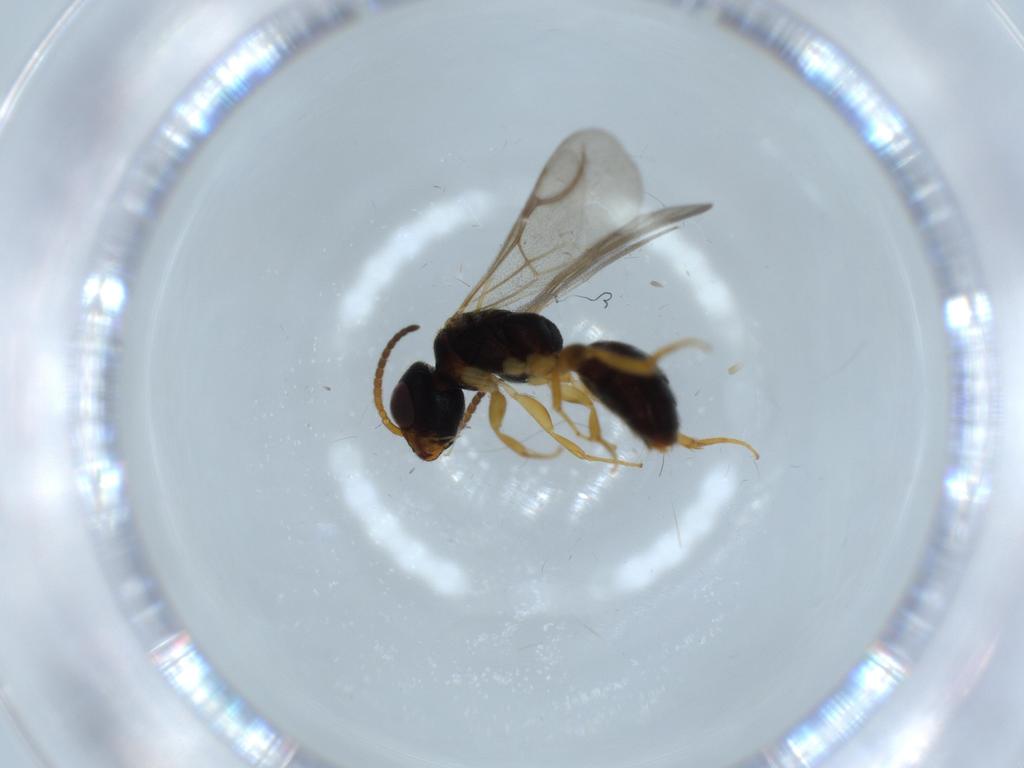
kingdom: Animalia
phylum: Arthropoda
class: Insecta
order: Hymenoptera
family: Bethylidae
